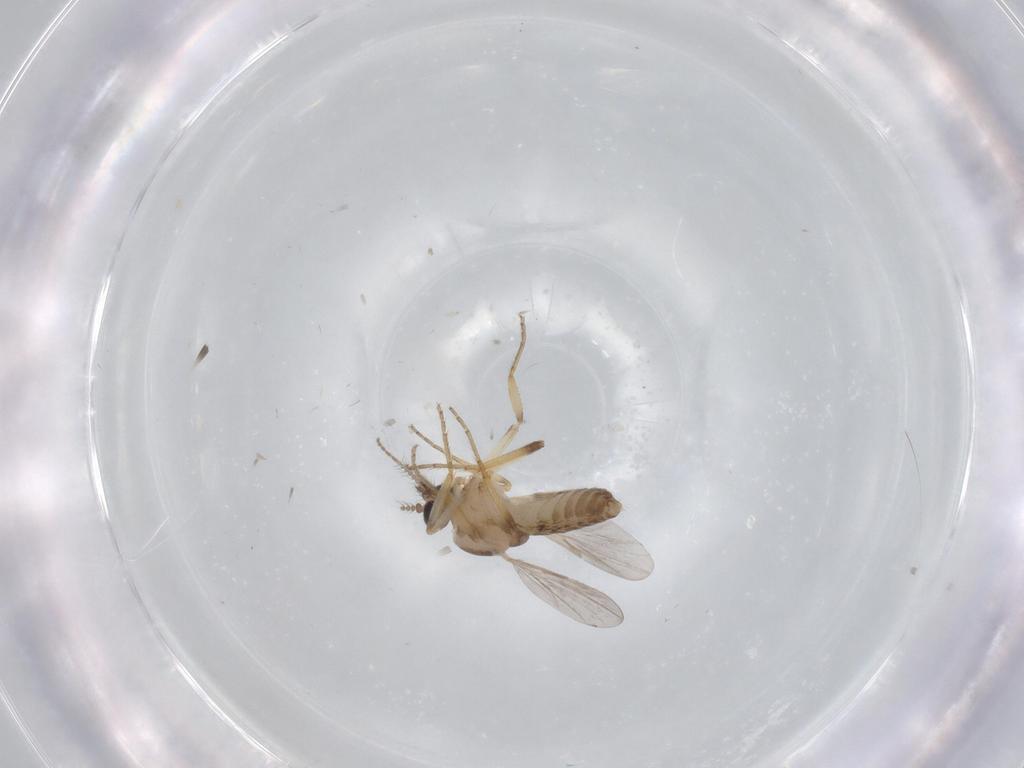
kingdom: Animalia
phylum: Arthropoda
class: Insecta
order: Diptera
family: Ceratopogonidae
